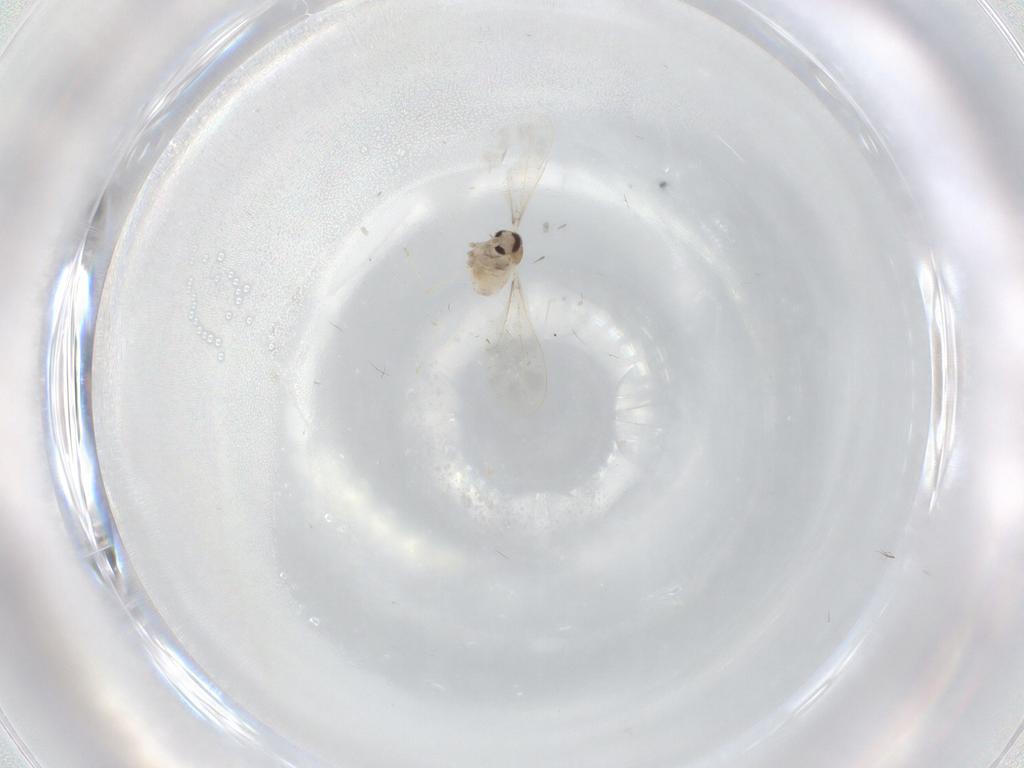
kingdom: Animalia
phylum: Arthropoda
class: Insecta
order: Diptera
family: Cecidomyiidae
